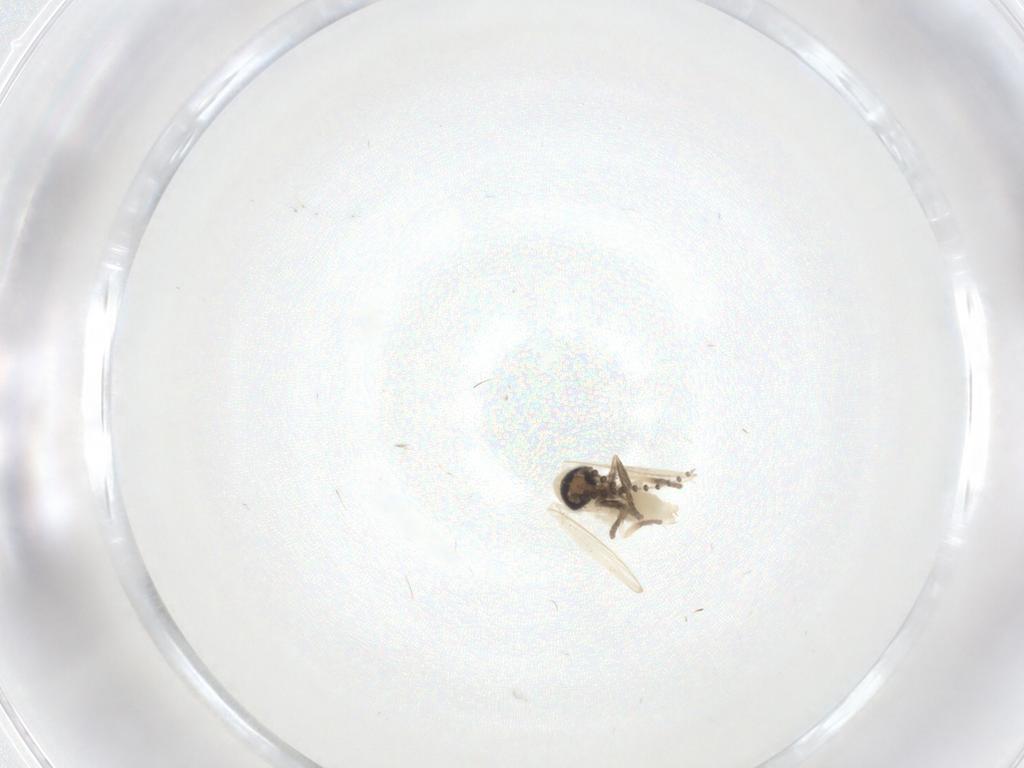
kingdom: Animalia
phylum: Arthropoda
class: Insecta
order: Diptera
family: Psychodidae
